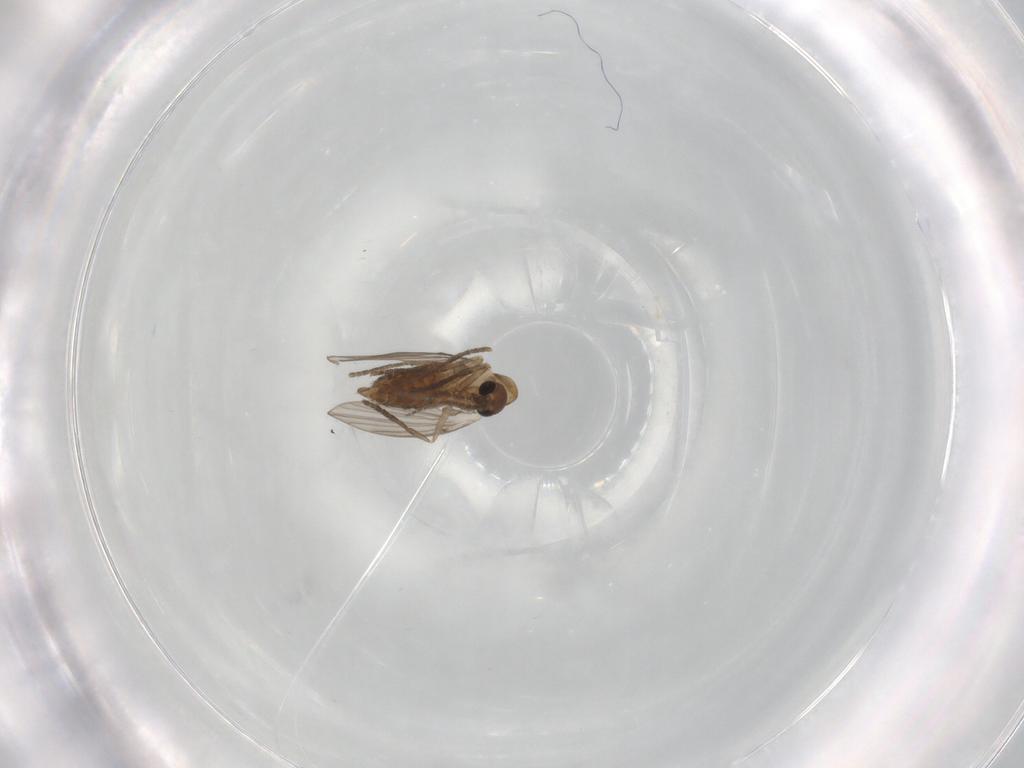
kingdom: Animalia
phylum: Arthropoda
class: Insecta
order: Diptera
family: Chironomidae
